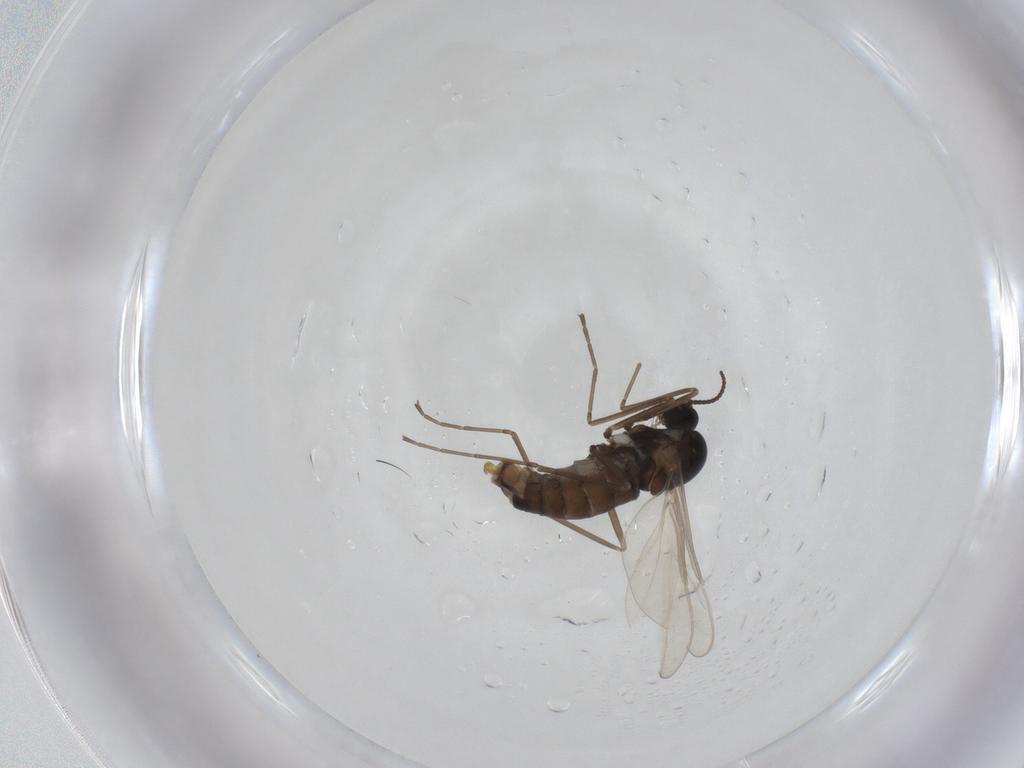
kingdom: Animalia
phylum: Arthropoda
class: Insecta
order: Diptera
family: Cecidomyiidae
